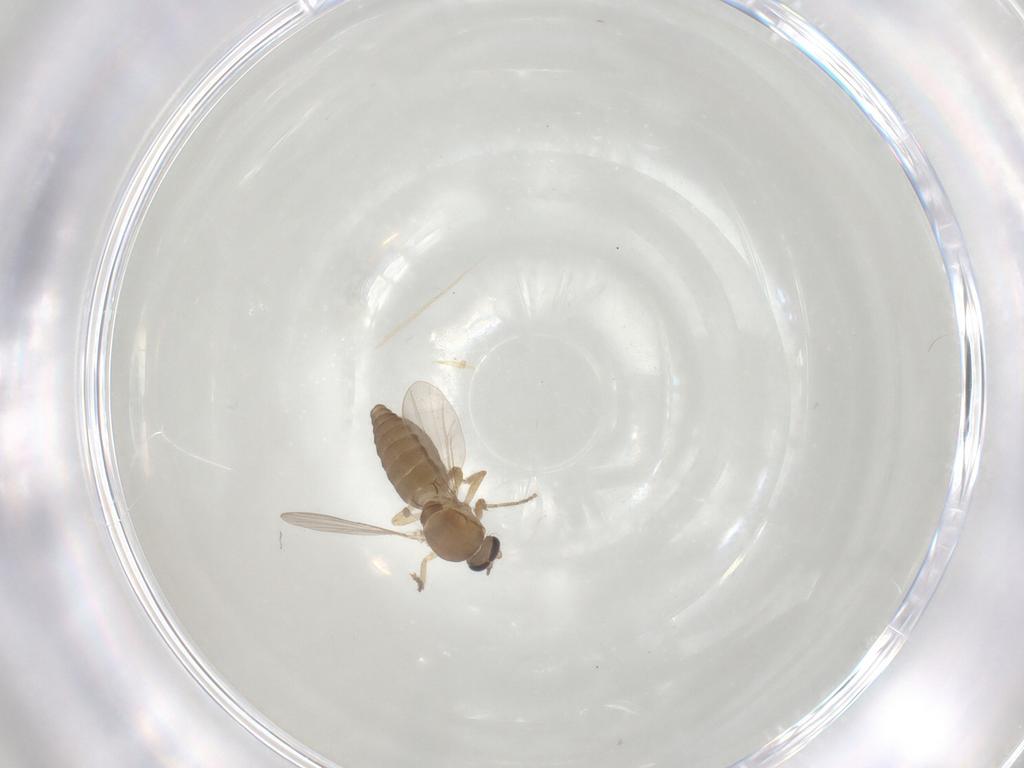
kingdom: Animalia
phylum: Arthropoda
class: Insecta
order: Diptera
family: Ceratopogonidae
